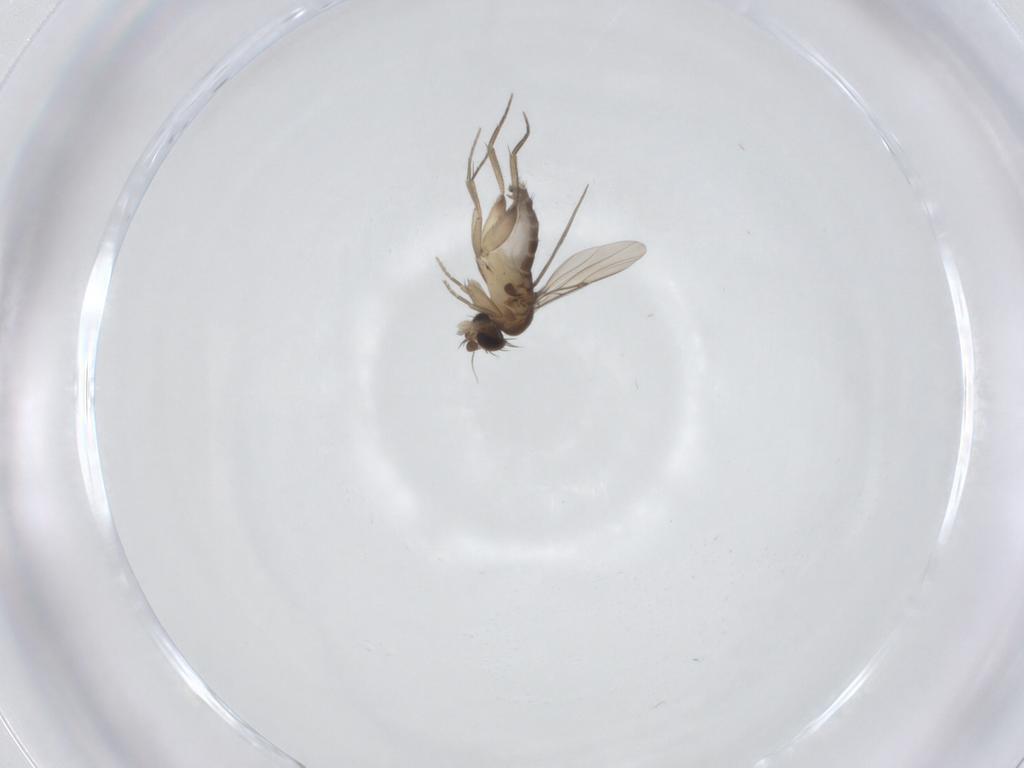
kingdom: Animalia
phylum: Arthropoda
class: Insecta
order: Diptera
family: Phoridae
